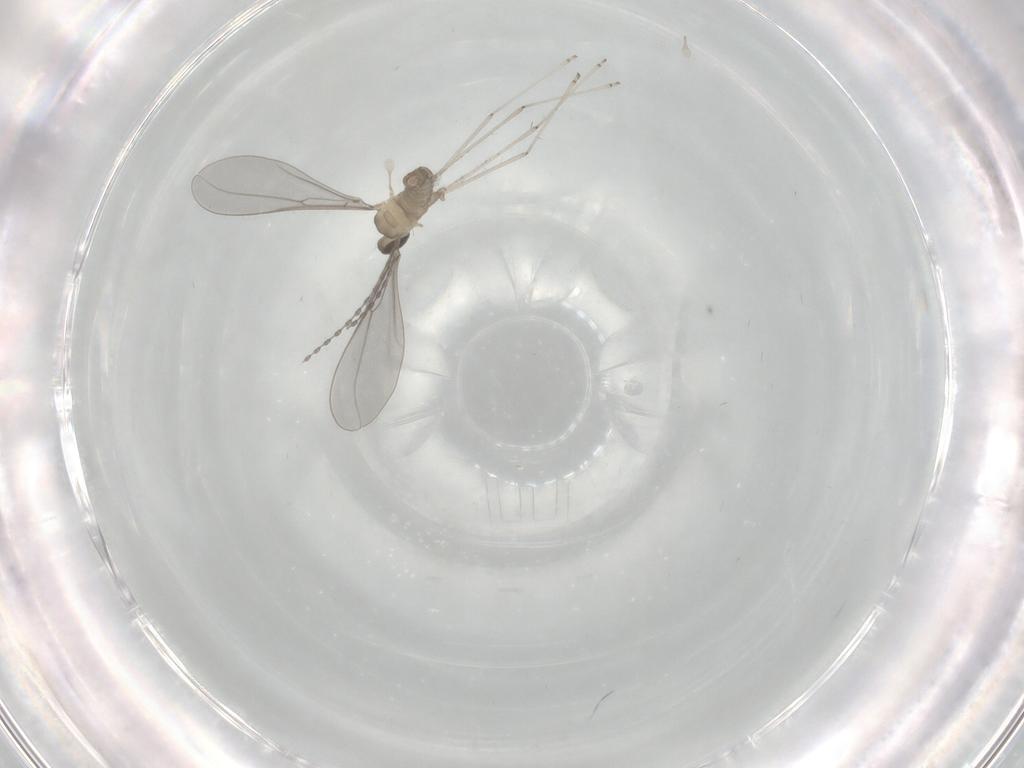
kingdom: Animalia
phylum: Arthropoda
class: Insecta
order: Diptera
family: Cecidomyiidae
